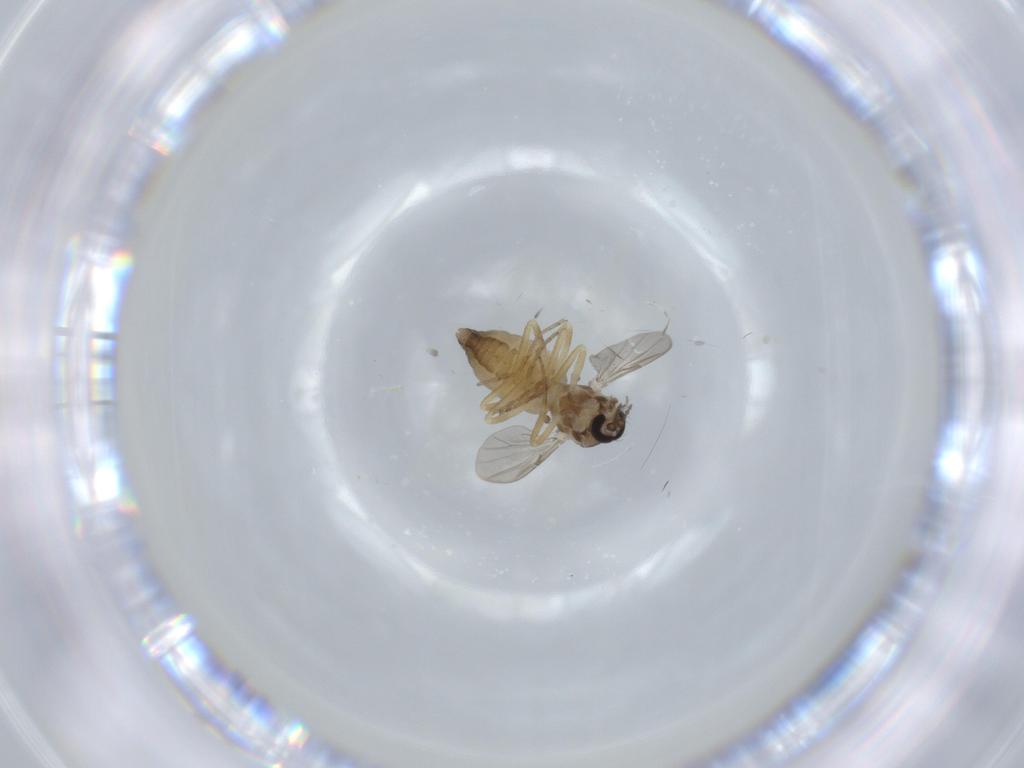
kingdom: Animalia
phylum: Arthropoda
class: Insecta
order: Diptera
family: Ceratopogonidae
